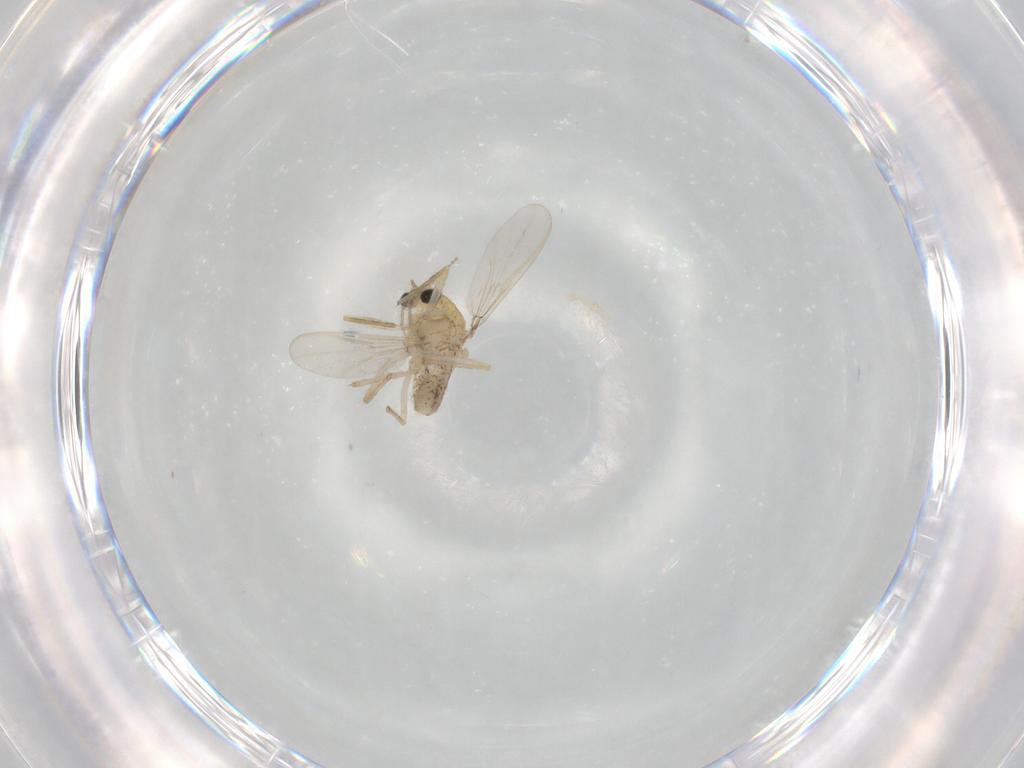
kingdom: Animalia
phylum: Arthropoda
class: Insecta
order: Diptera
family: Chironomidae
